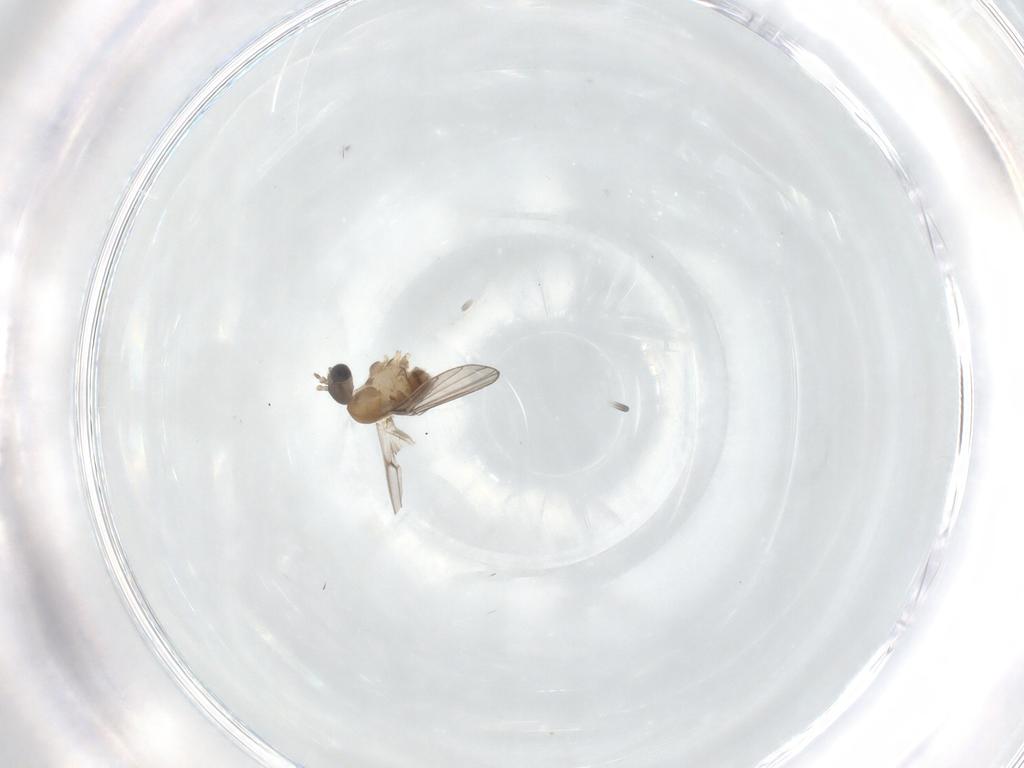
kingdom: Animalia
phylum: Arthropoda
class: Insecta
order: Diptera
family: Psychodidae
